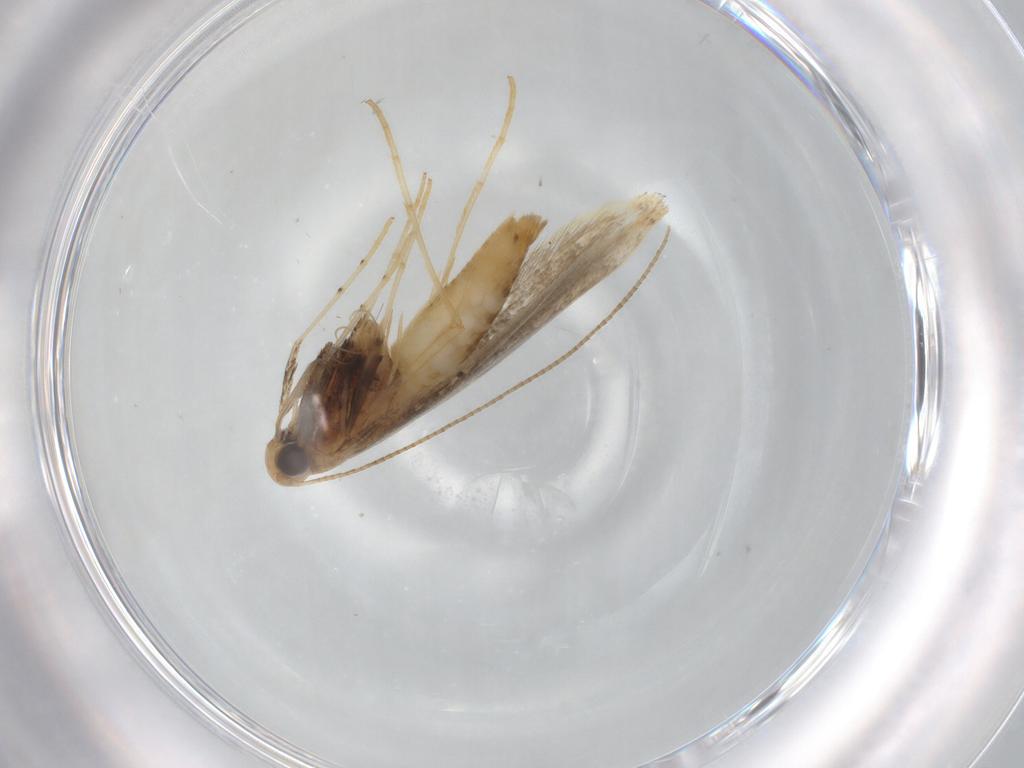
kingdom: Animalia
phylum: Arthropoda
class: Insecta
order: Lepidoptera
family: Gracillariidae
